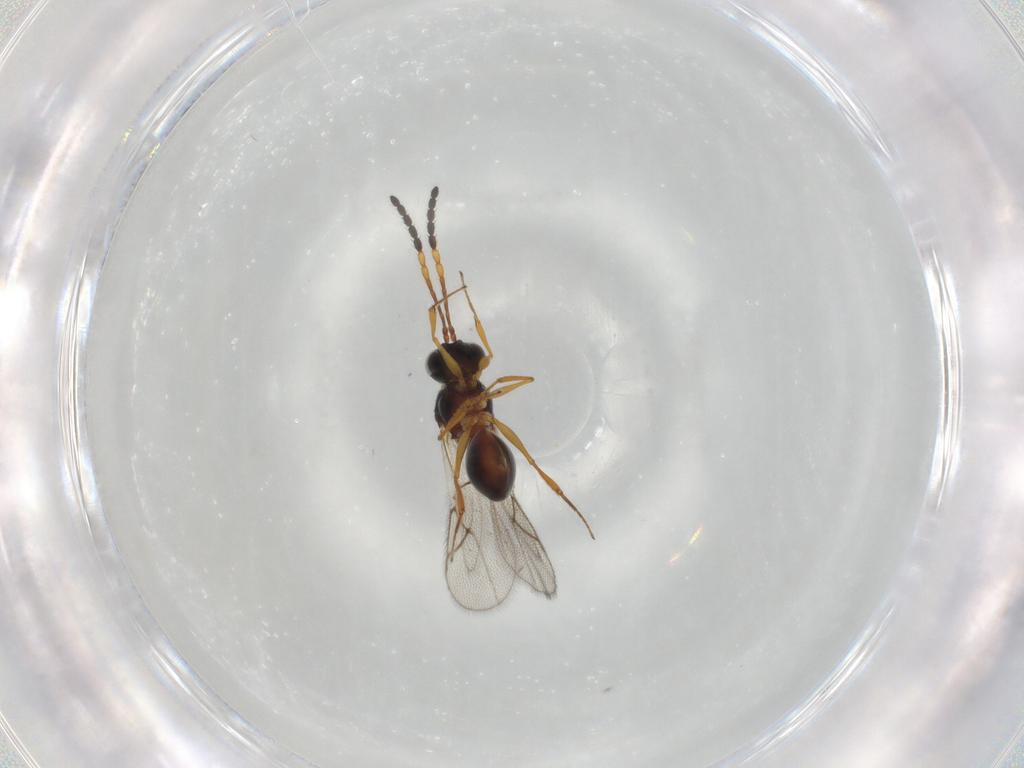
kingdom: Animalia
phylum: Arthropoda
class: Insecta
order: Hymenoptera
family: Figitidae
